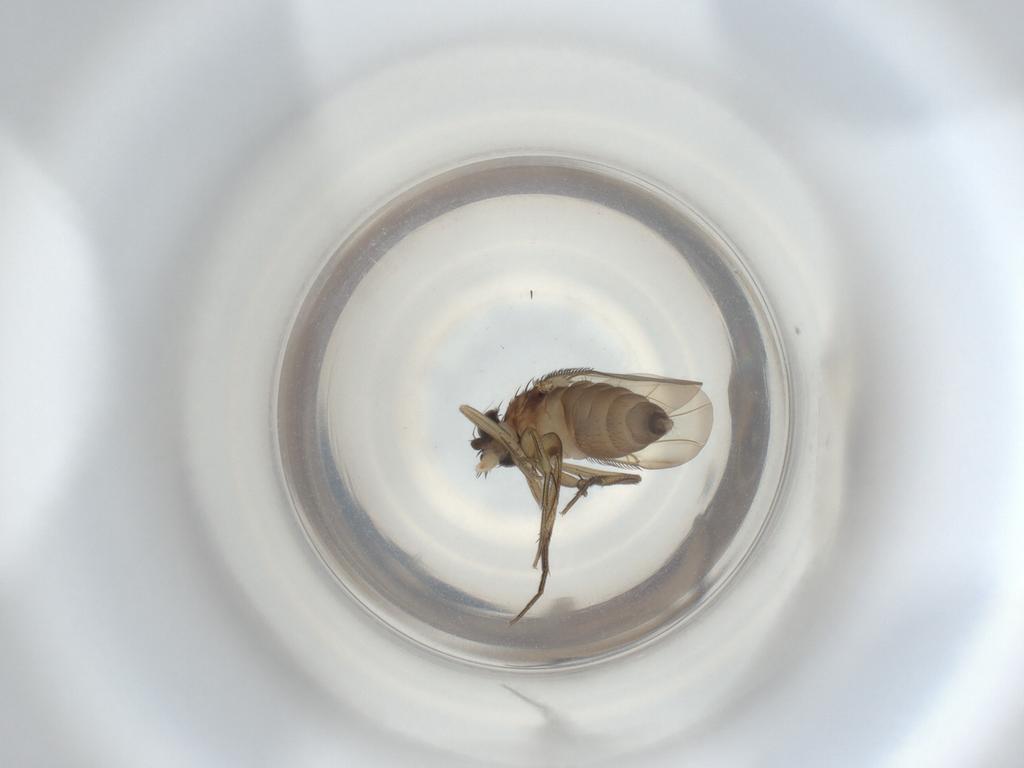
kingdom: Animalia
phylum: Arthropoda
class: Insecta
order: Diptera
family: Phoridae
